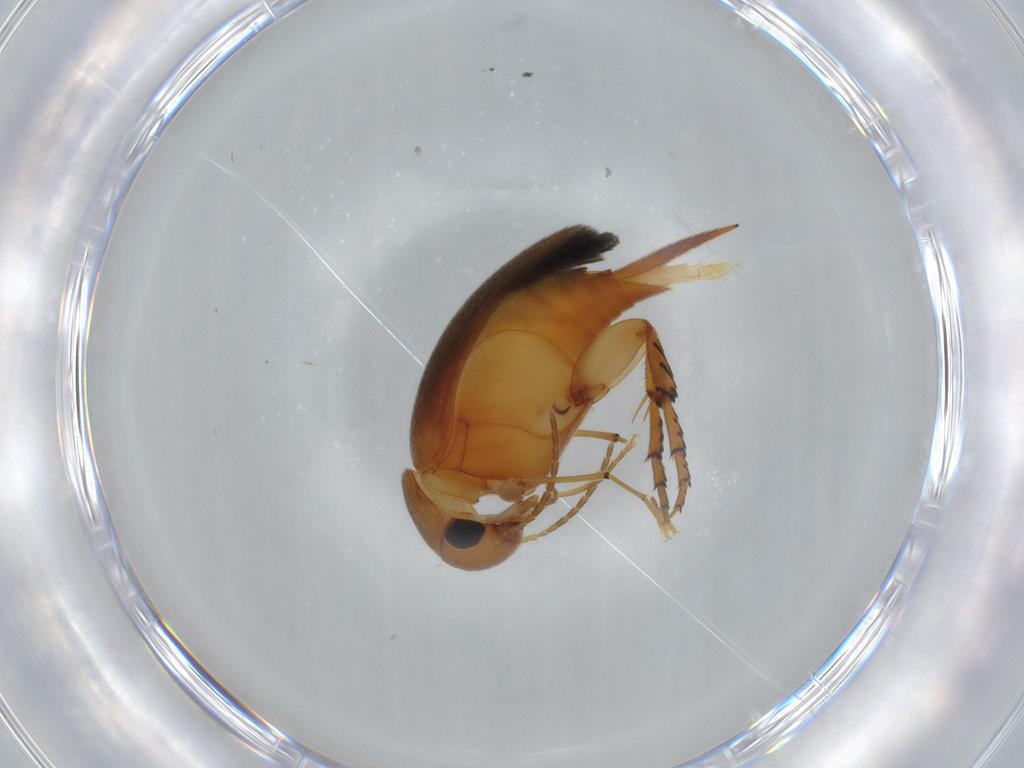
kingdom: Animalia
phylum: Arthropoda
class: Insecta
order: Coleoptera
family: Mordellidae
